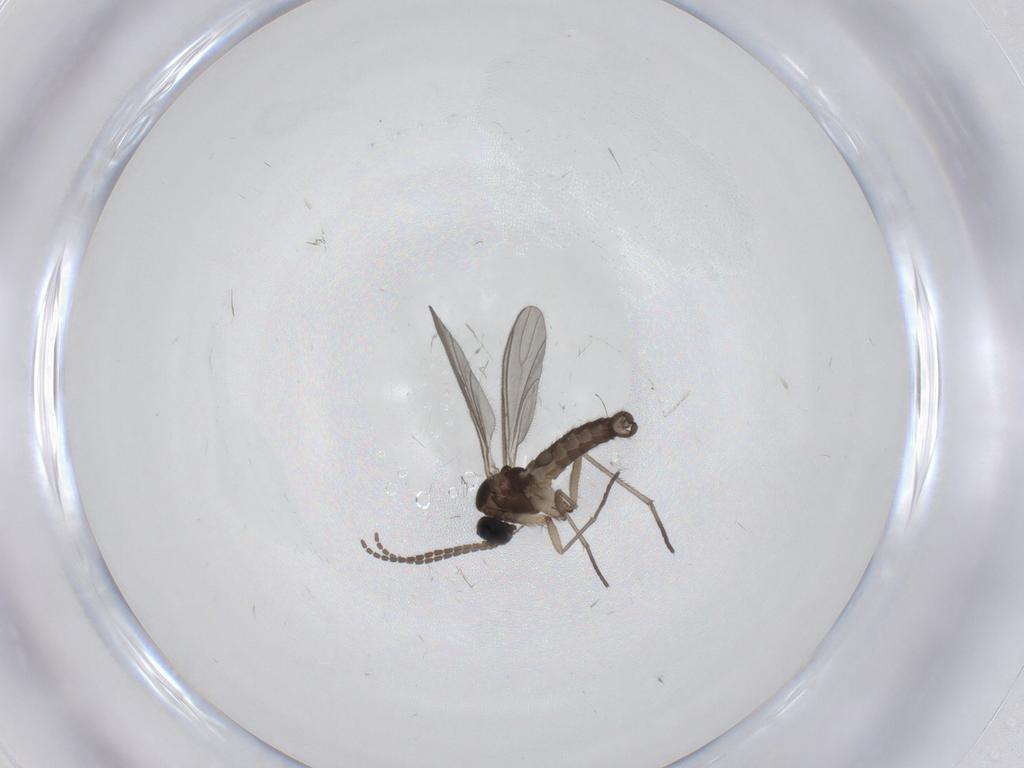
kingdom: Animalia
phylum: Arthropoda
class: Insecta
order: Diptera
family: Sciaridae
